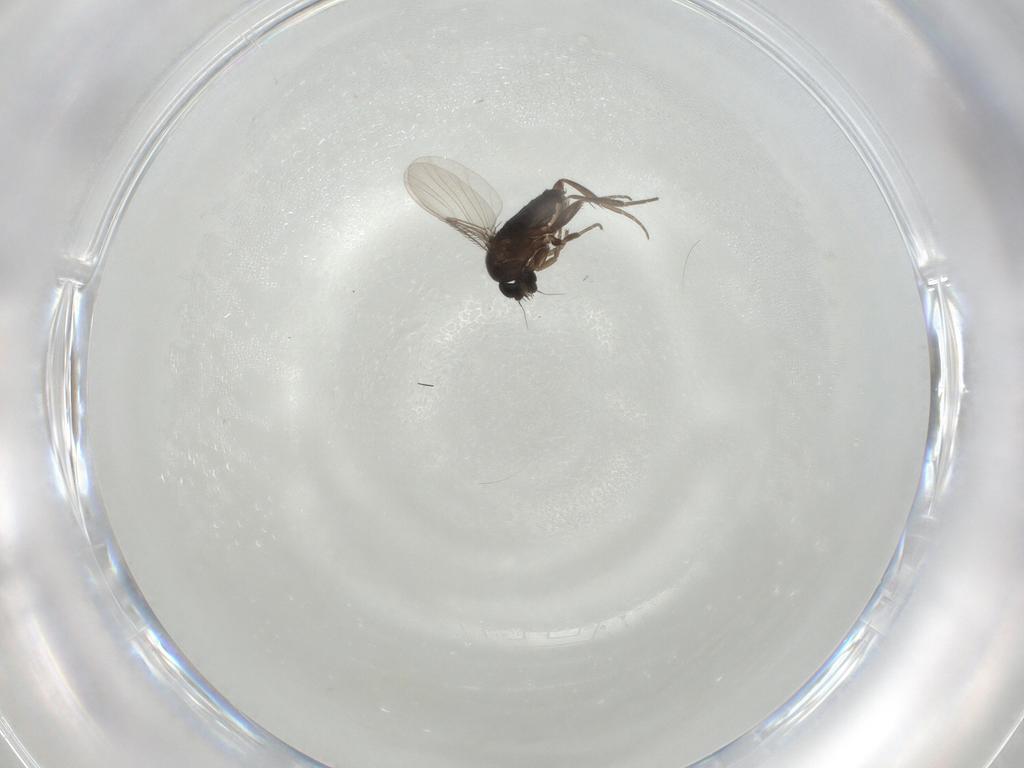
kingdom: Animalia
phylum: Arthropoda
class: Insecta
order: Diptera
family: Phoridae
